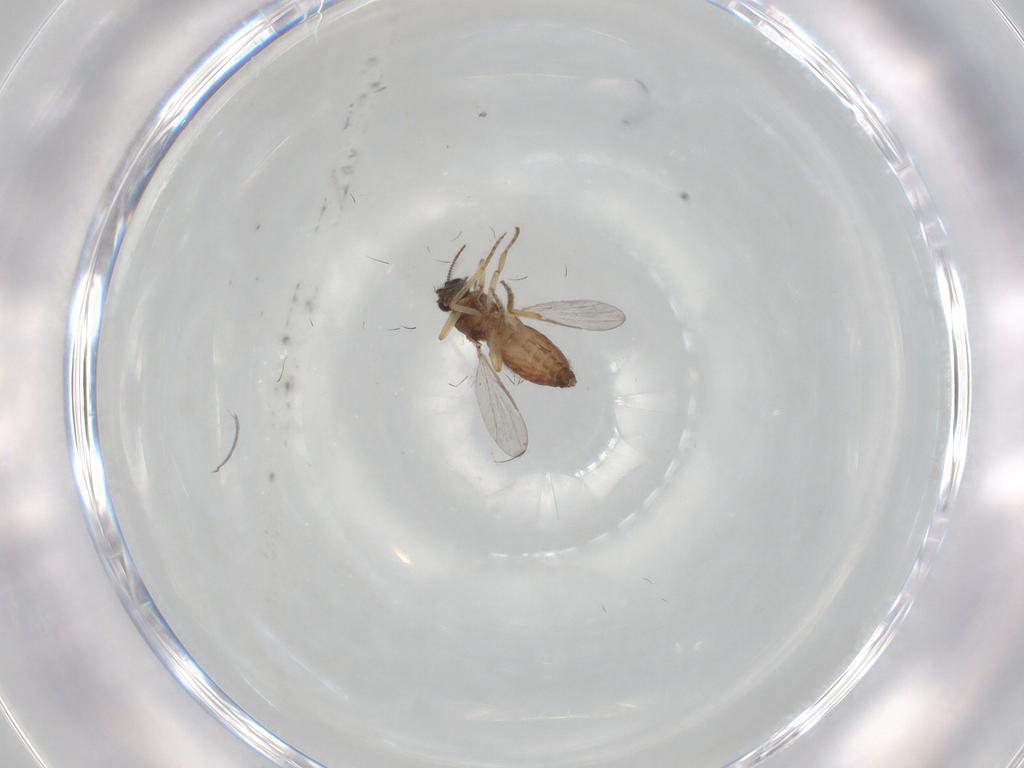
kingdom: Animalia
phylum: Arthropoda
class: Insecta
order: Diptera
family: Ceratopogonidae
